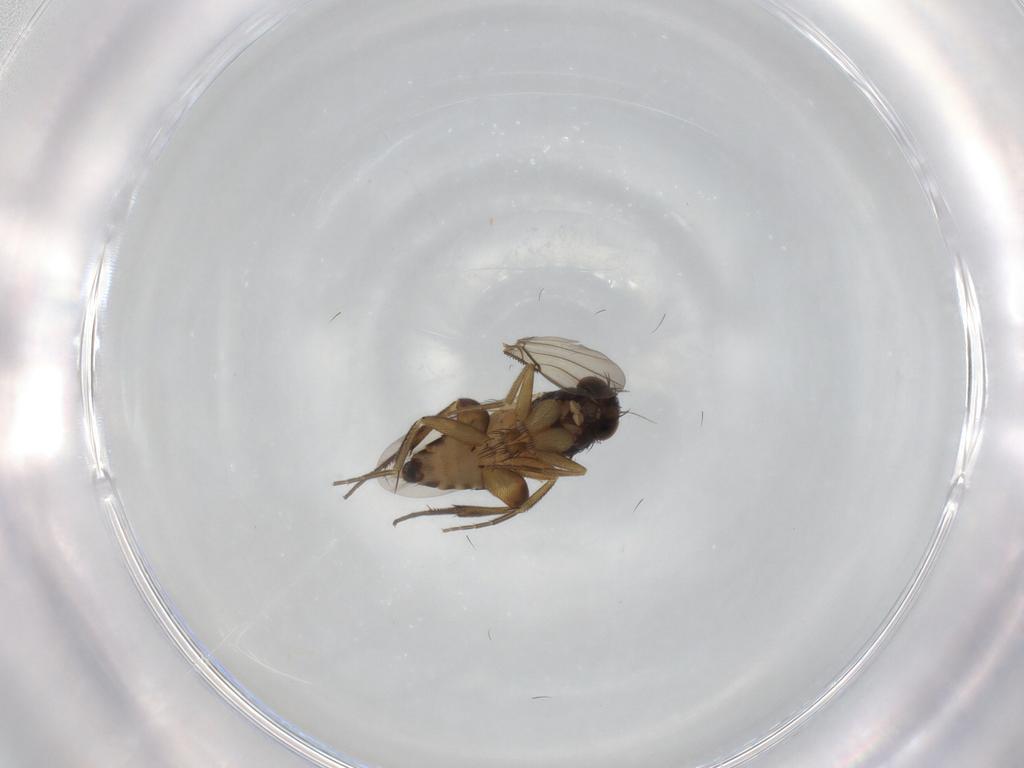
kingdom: Animalia
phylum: Arthropoda
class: Insecta
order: Diptera
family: Phoridae
